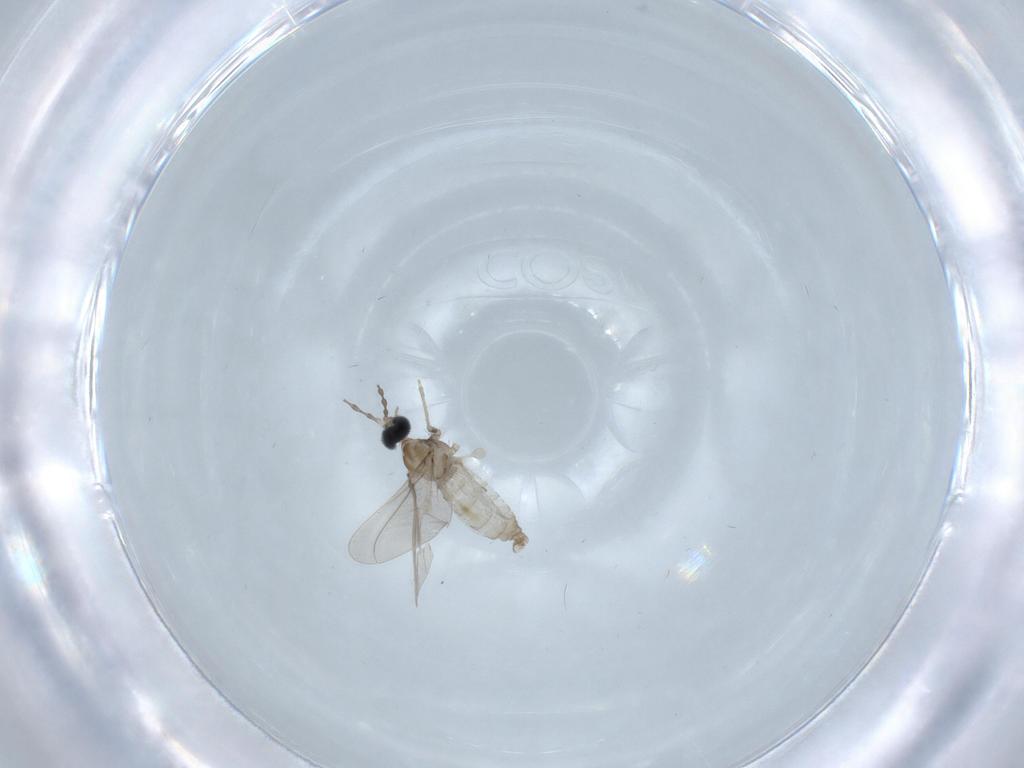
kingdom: Animalia
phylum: Arthropoda
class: Insecta
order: Diptera
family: Cecidomyiidae
